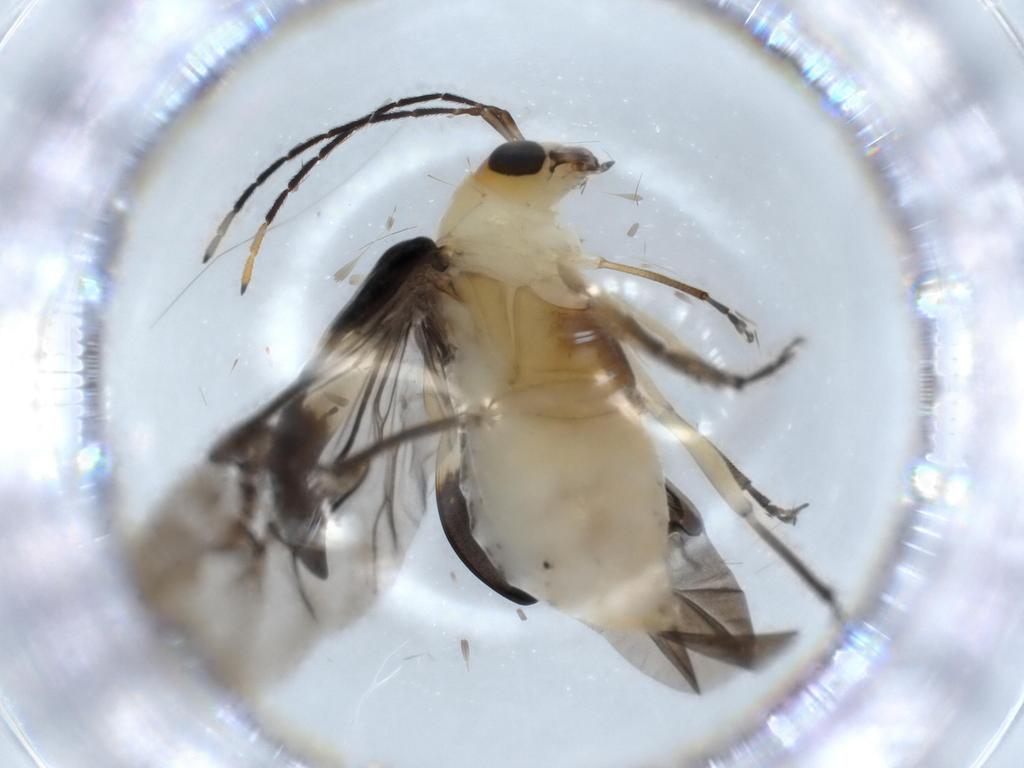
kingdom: Animalia
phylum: Arthropoda
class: Insecta
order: Coleoptera
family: Chrysomelidae
